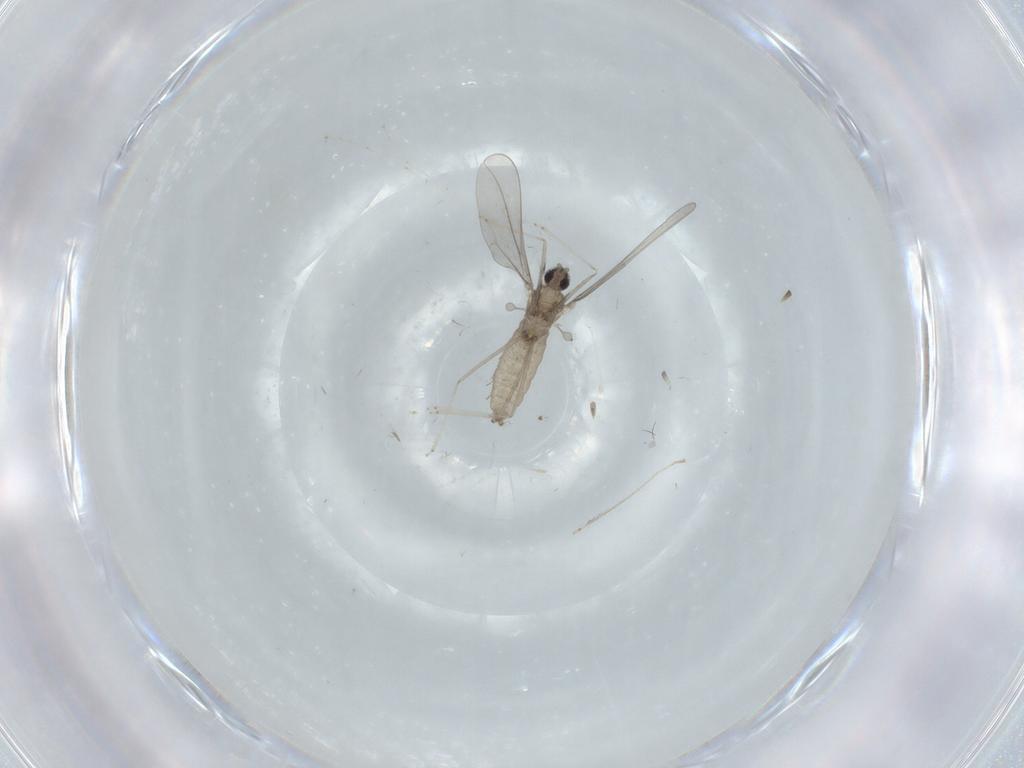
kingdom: Animalia
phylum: Arthropoda
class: Insecta
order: Diptera
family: Cecidomyiidae
